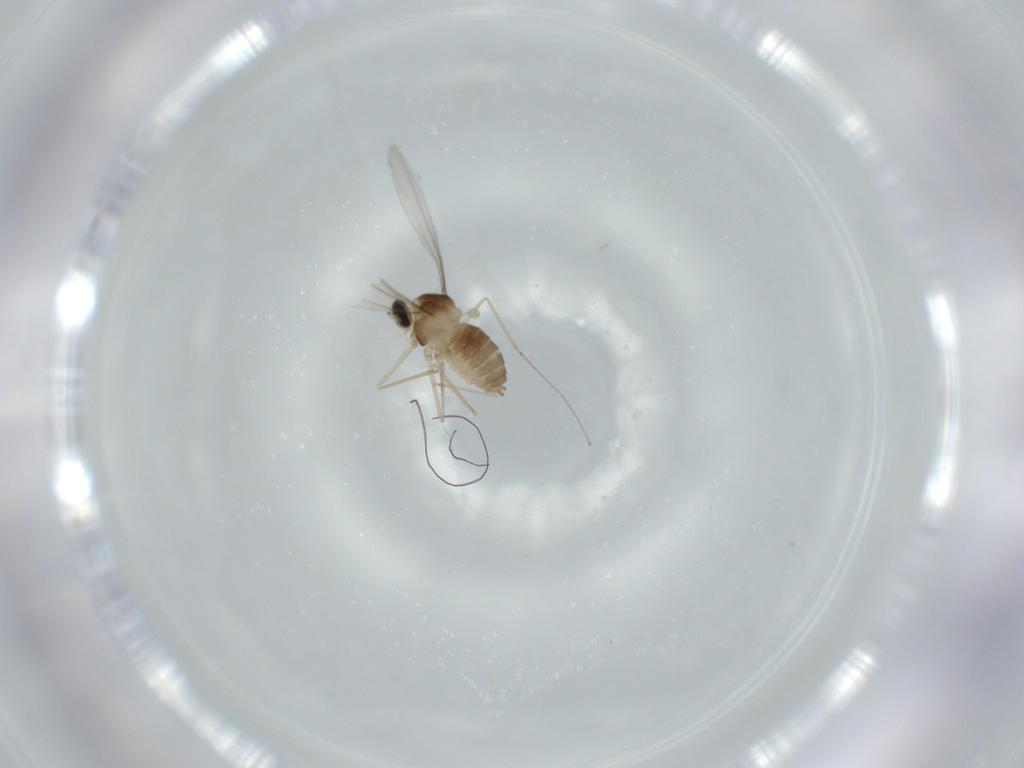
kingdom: Animalia
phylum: Arthropoda
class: Insecta
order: Diptera
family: Cecidomyiidae
